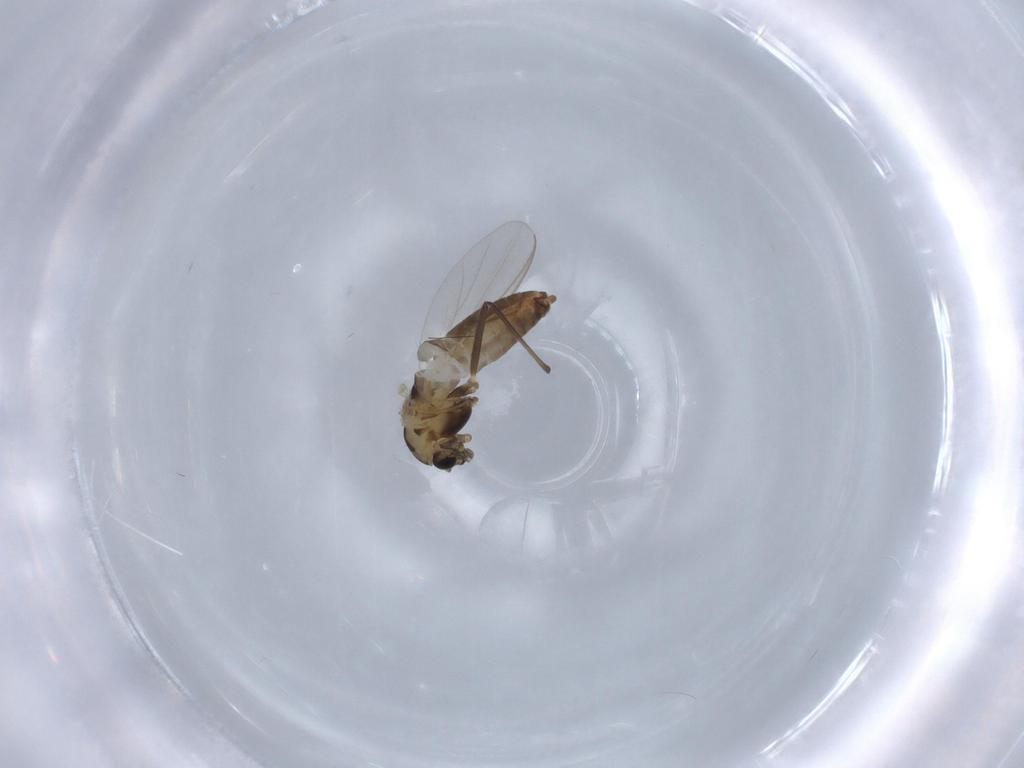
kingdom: Animalia
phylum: Arthropoda
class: Insecta
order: Diptera
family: Chironomidae
